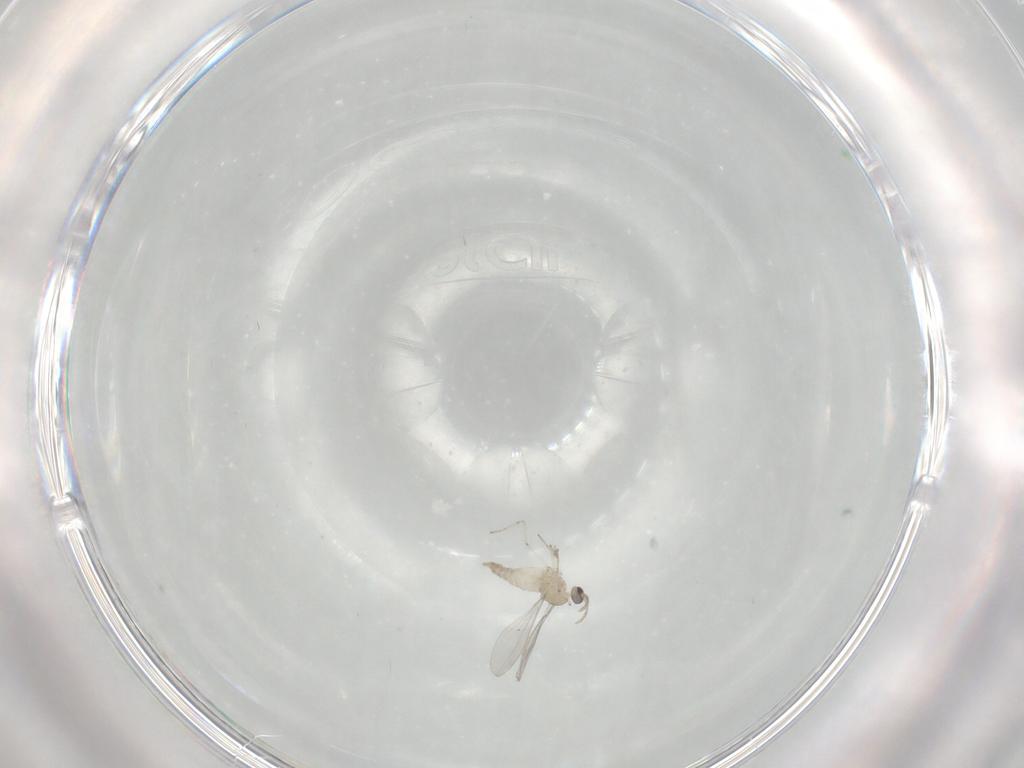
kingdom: Animalia
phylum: Arthropoda
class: Insecta
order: Diptera
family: Cecidomyiidae
